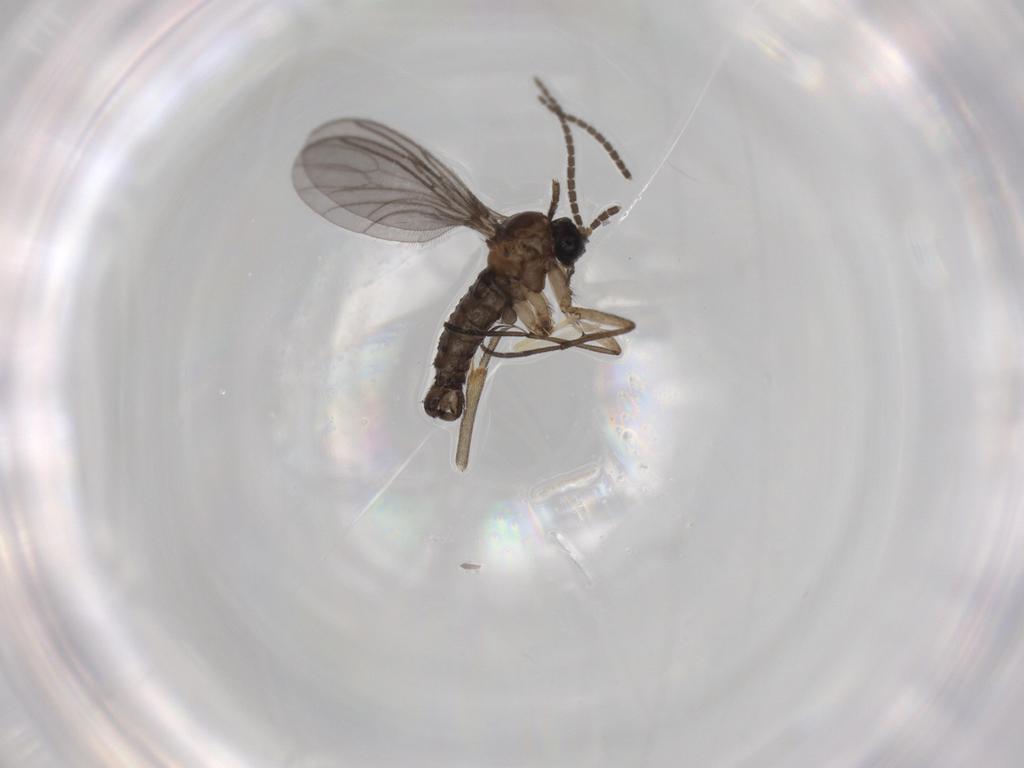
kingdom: Animalia
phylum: Arthropoda
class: Insecta
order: Diptera
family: Sciaridae
